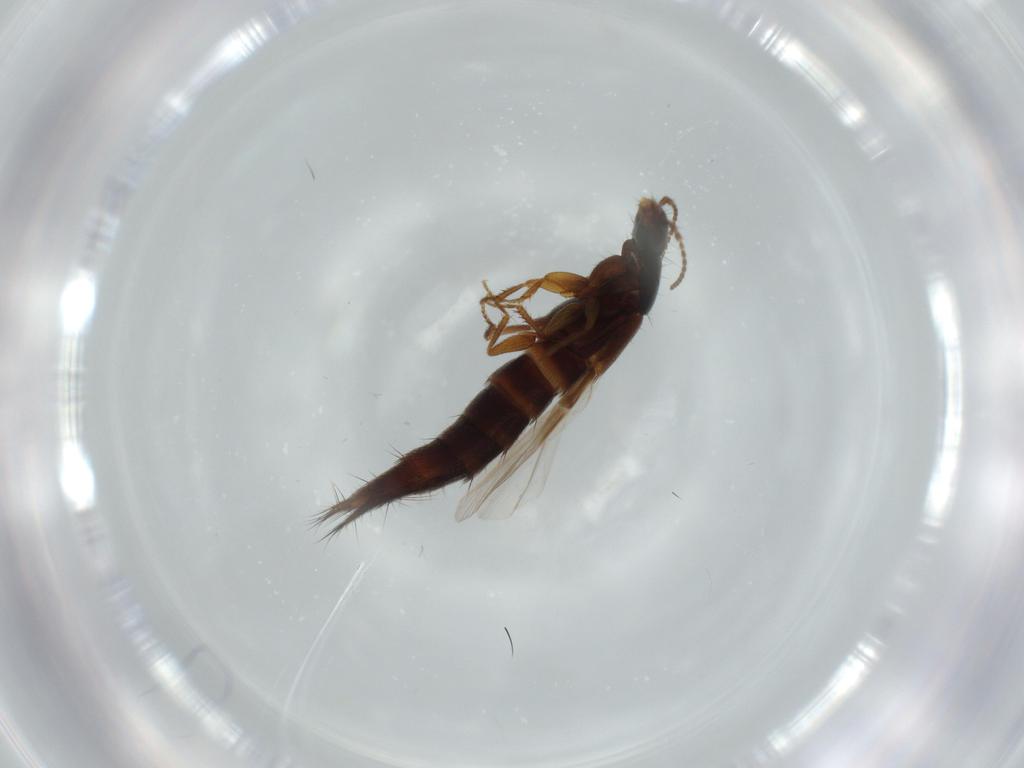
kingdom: Animalia
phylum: Arthropoda
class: Insecta
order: Coleoptera
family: Staphylinidae
